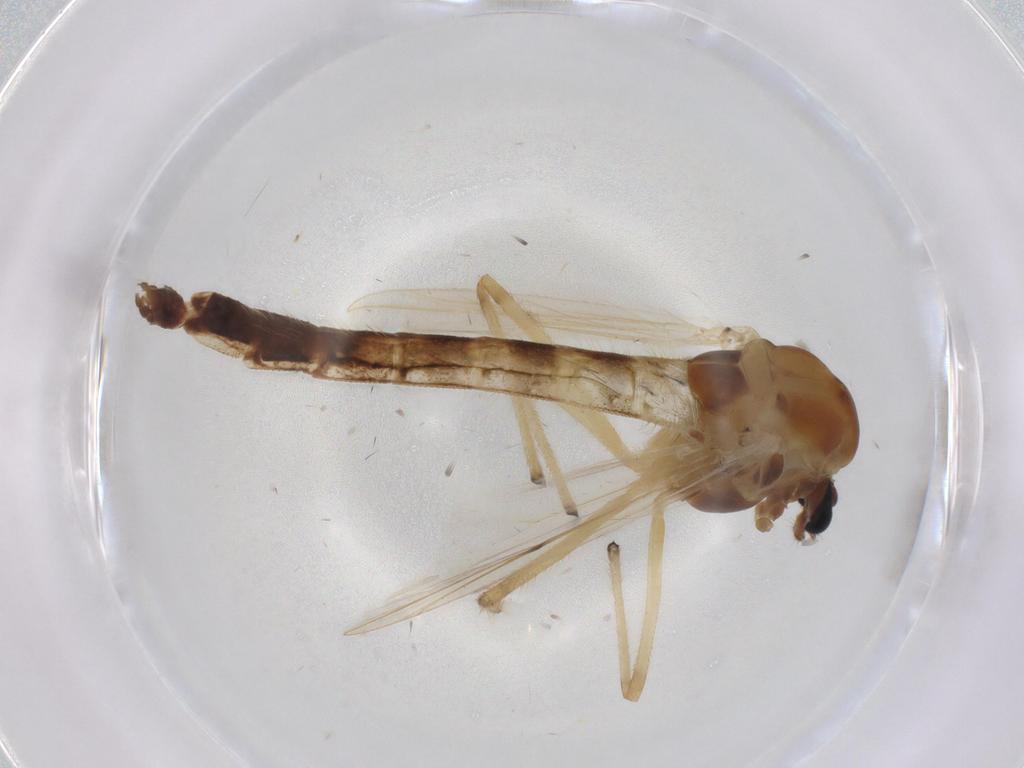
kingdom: Animalia
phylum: Arthropoda
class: Insecta
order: Diptera
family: Chironomidae
